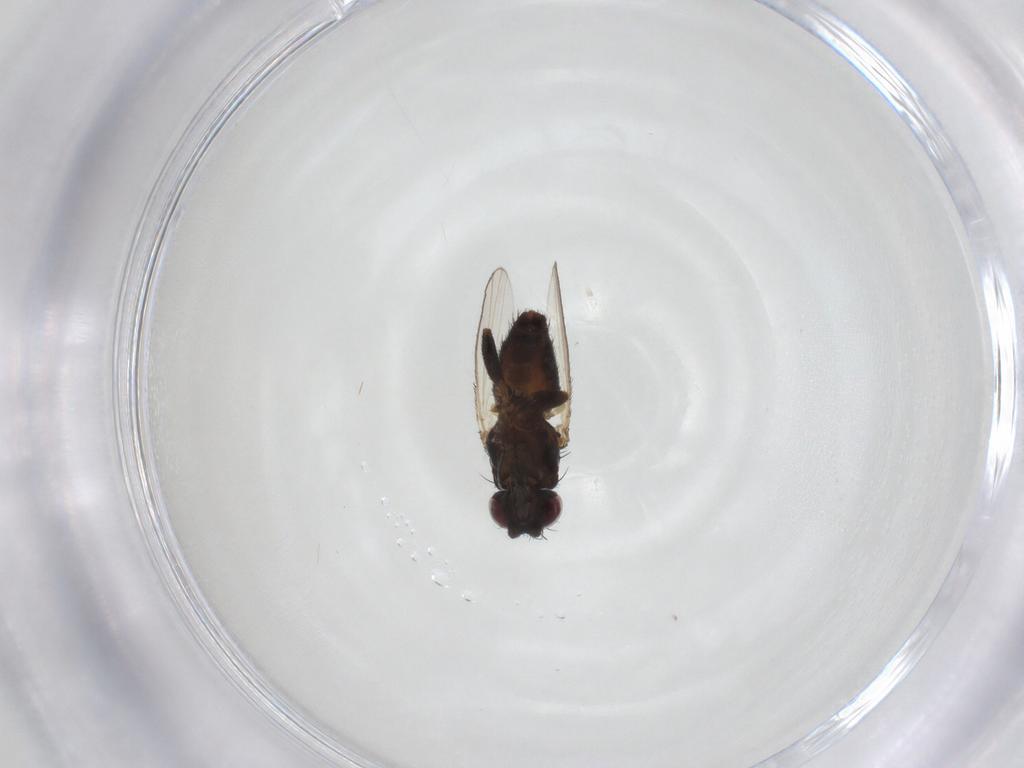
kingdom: Animalia
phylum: Arthropoda
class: Insecta
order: Diptera
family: Milichiidae
